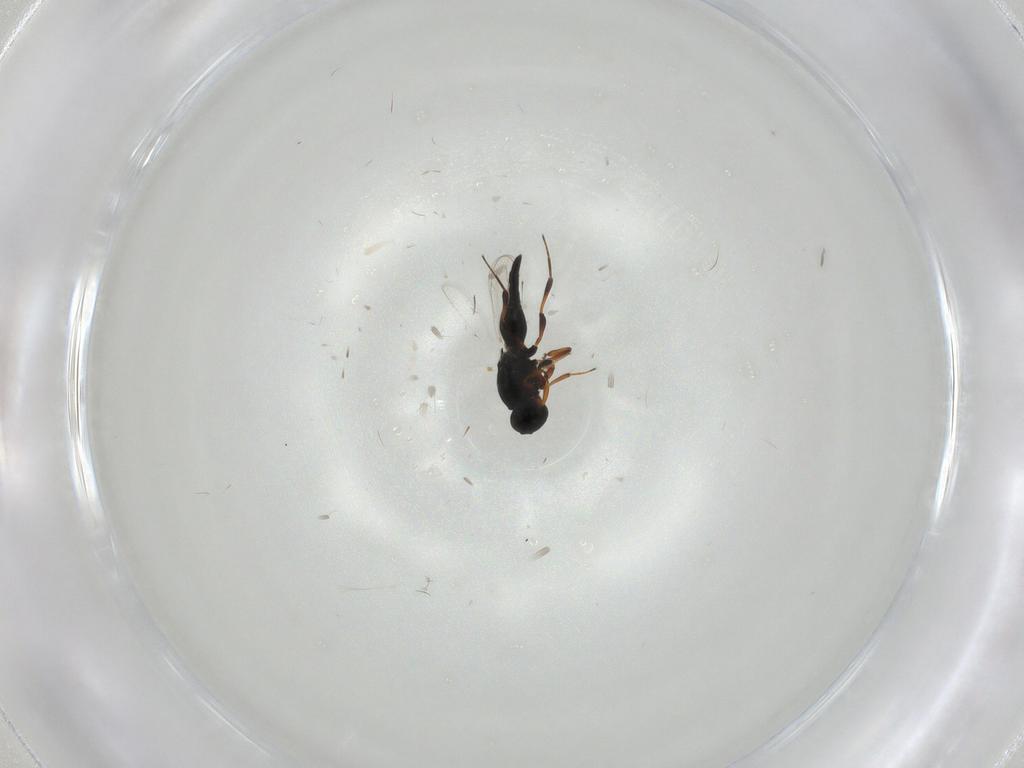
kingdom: Animalia
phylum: Arthropoda
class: Insecta
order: Hymenoptera
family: Platygastridae
